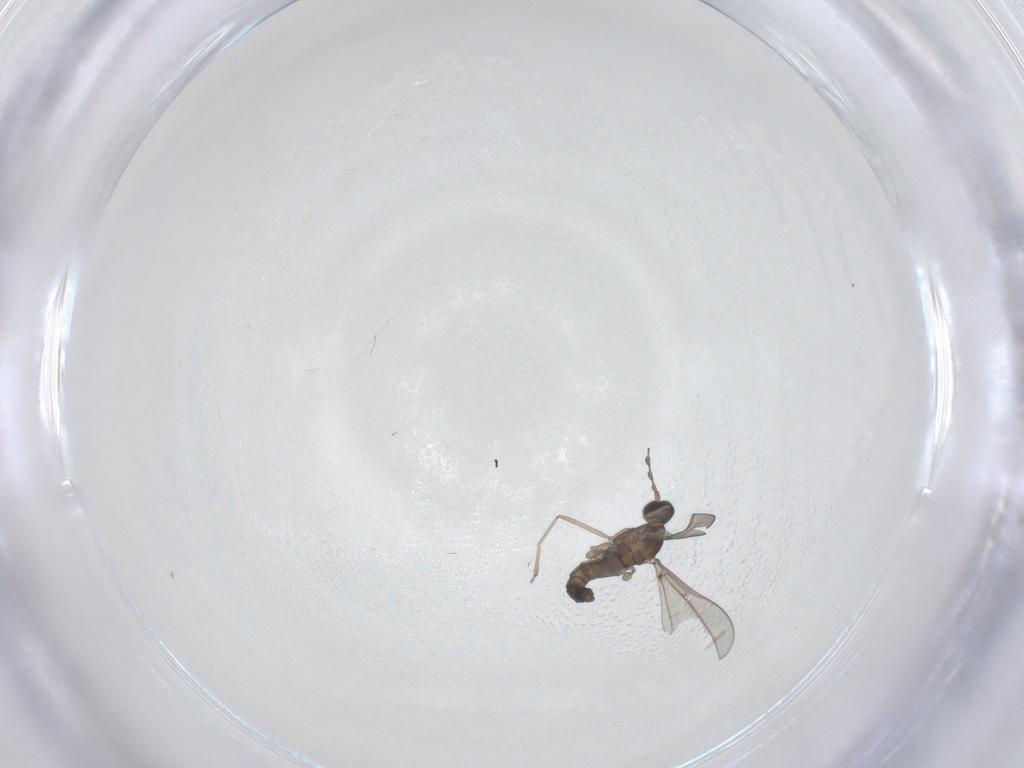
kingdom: Animalia
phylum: Arthropoda
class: Insecta
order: Diptera
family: Cecidomyiidae
